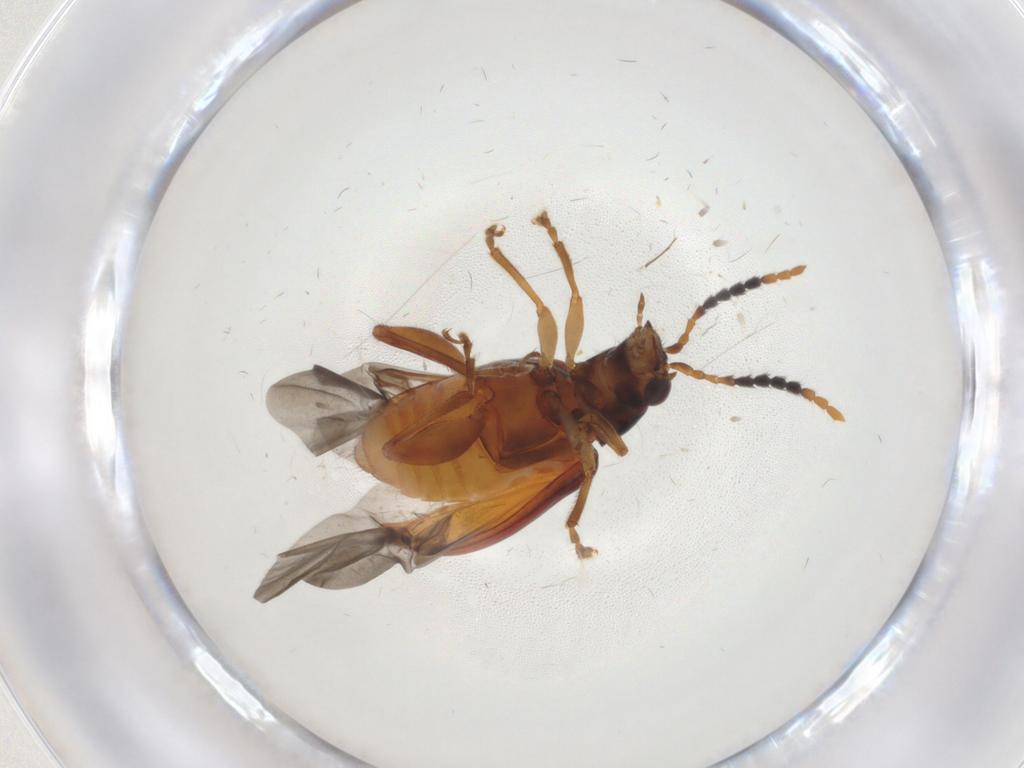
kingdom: Animalia
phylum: Arthropoda
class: Insecta
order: Coleoptera
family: Chrysomelidae
